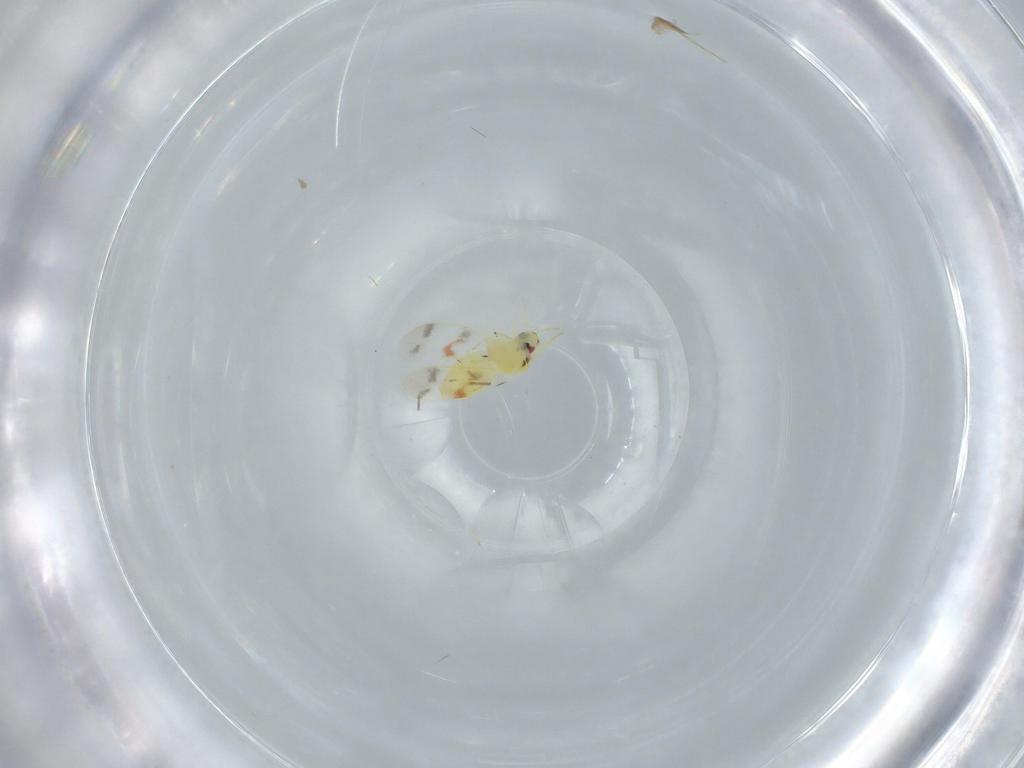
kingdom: Animalia
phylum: Arthropoda
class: Insecta
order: Hemiptera
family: Aleyrodidae
